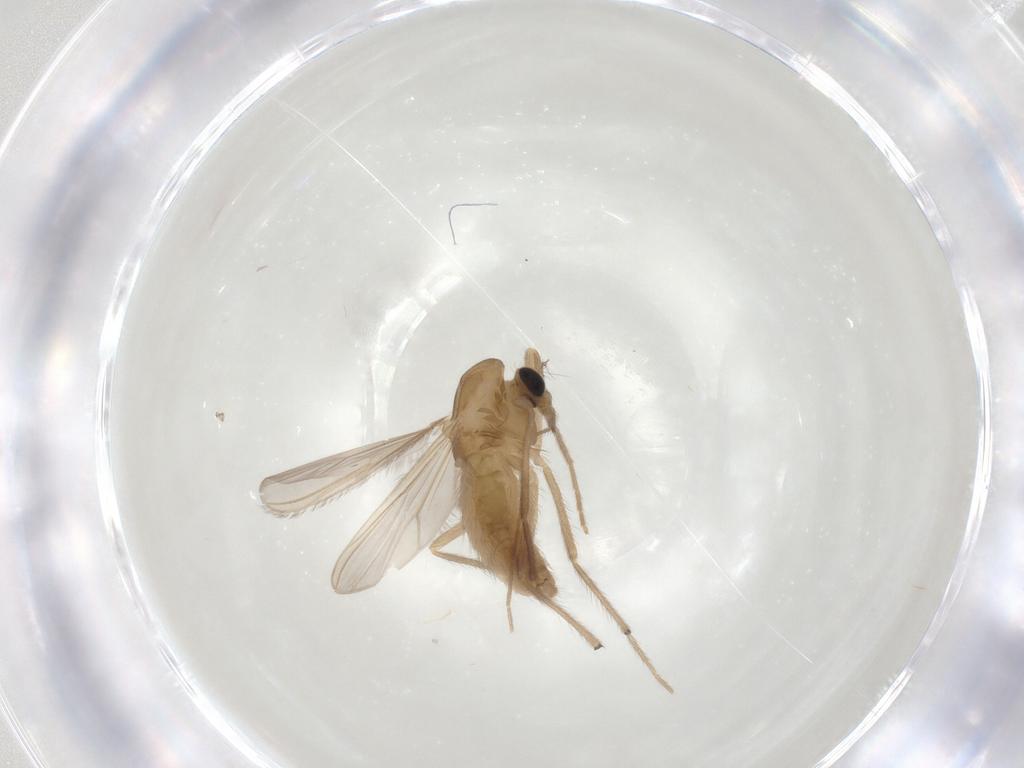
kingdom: Animalia
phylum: Arthropoda
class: Insecta
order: Diptera
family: Chironomidae
